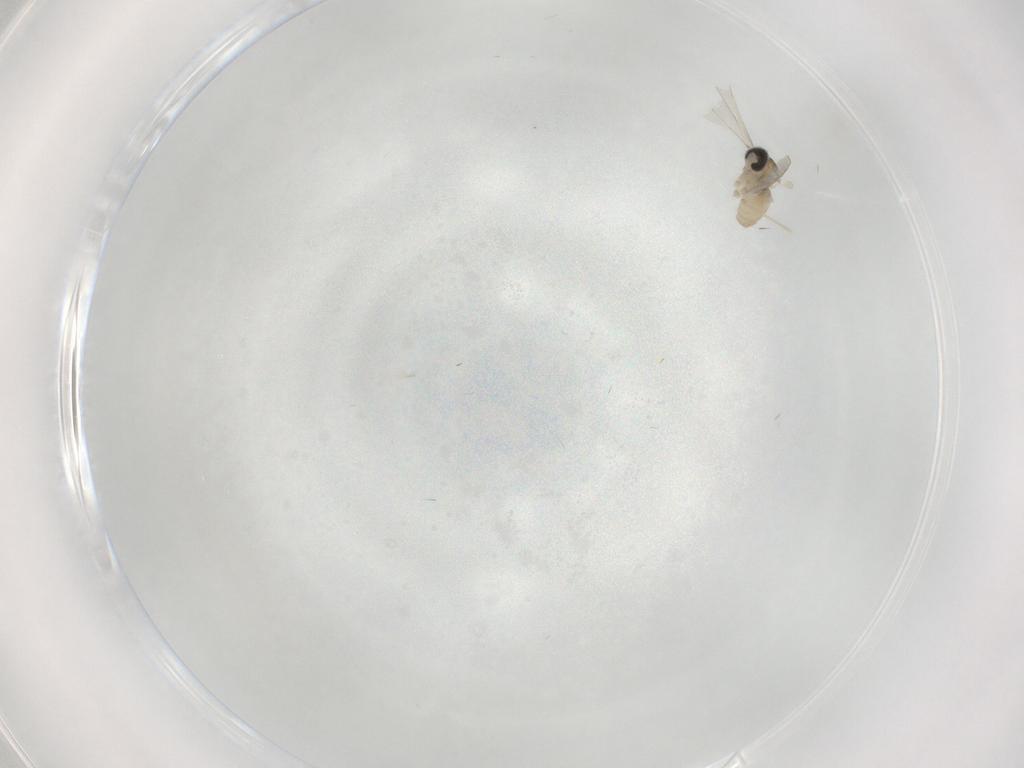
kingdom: Animalia
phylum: Arthropoda
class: Insecta
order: Diptera
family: Cecidomyiidae
